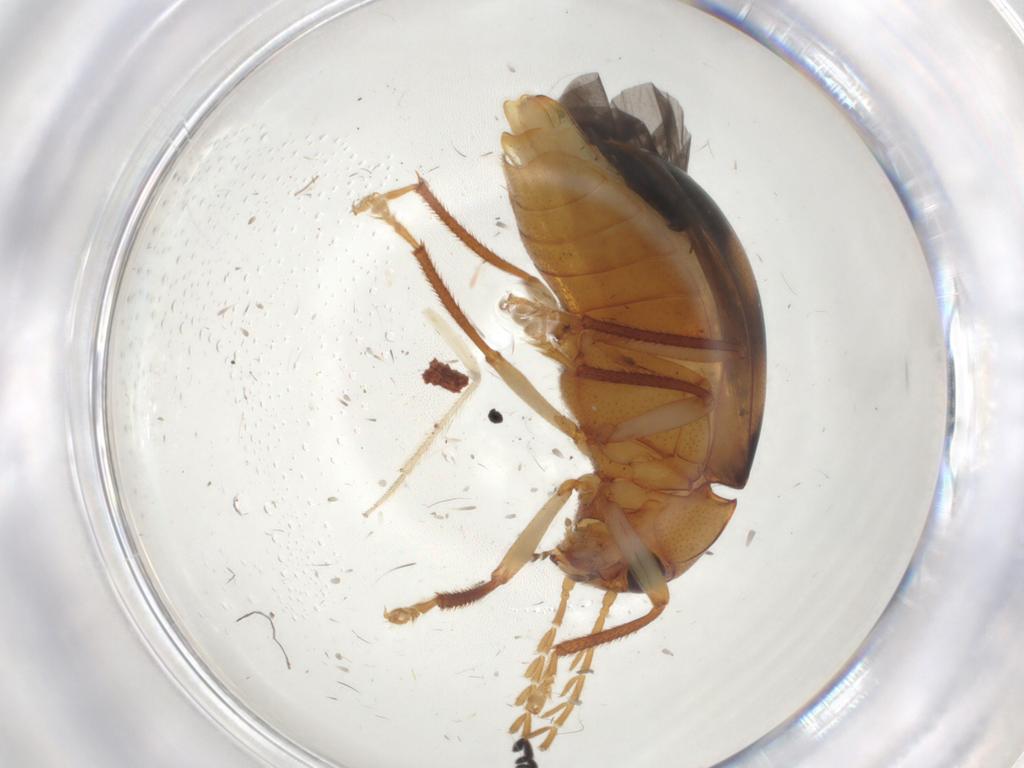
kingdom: Animalia
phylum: Arthropoda
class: Insecta
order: Coleoptera
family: Ptilodactylidae
